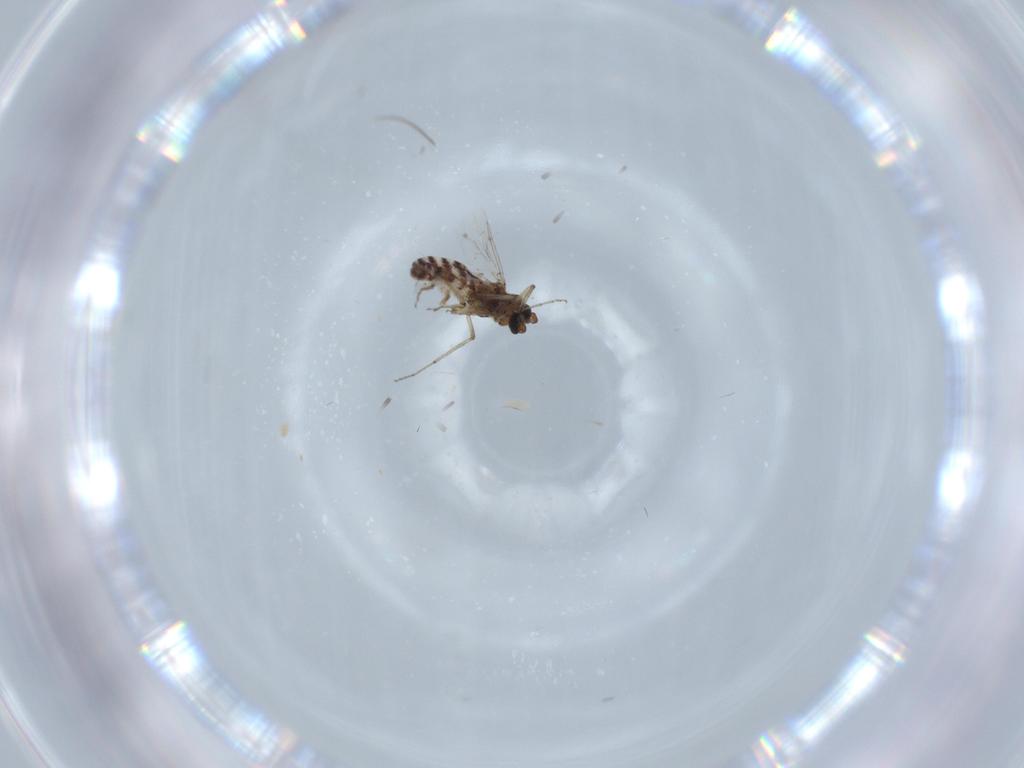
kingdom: Animalia
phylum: Arthropoda
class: Insecta
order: Diptera
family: Ceratopogonidae
